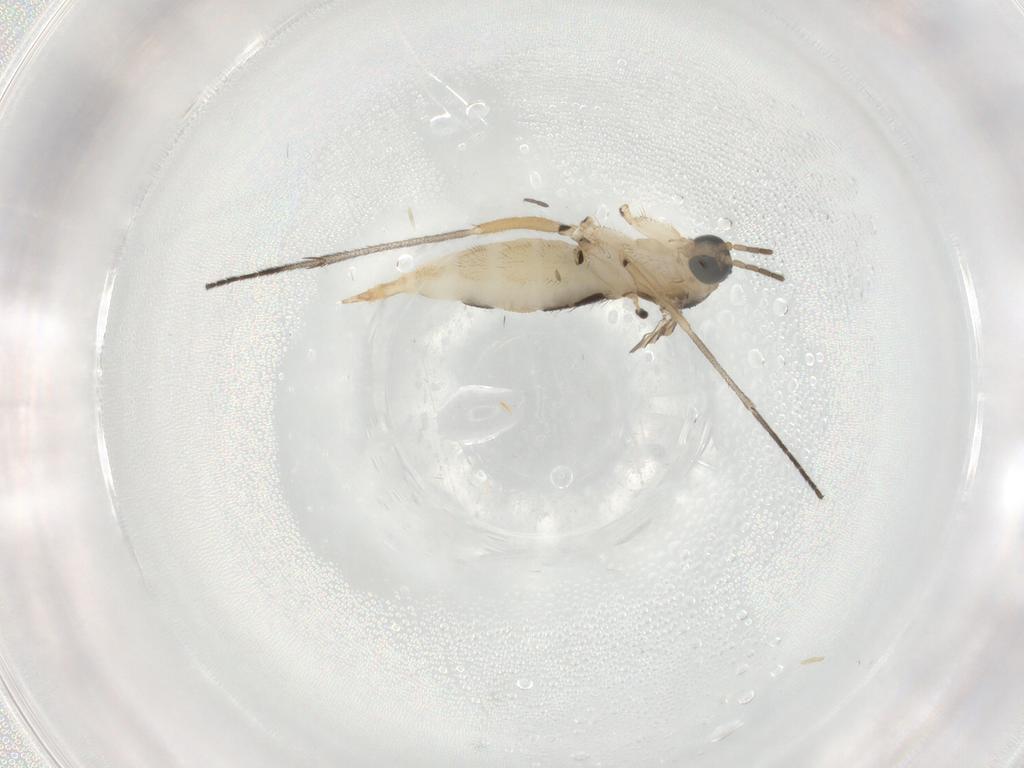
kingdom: Animalia
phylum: Arthropoda
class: Insecta
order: Diptera
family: Sciaridae
